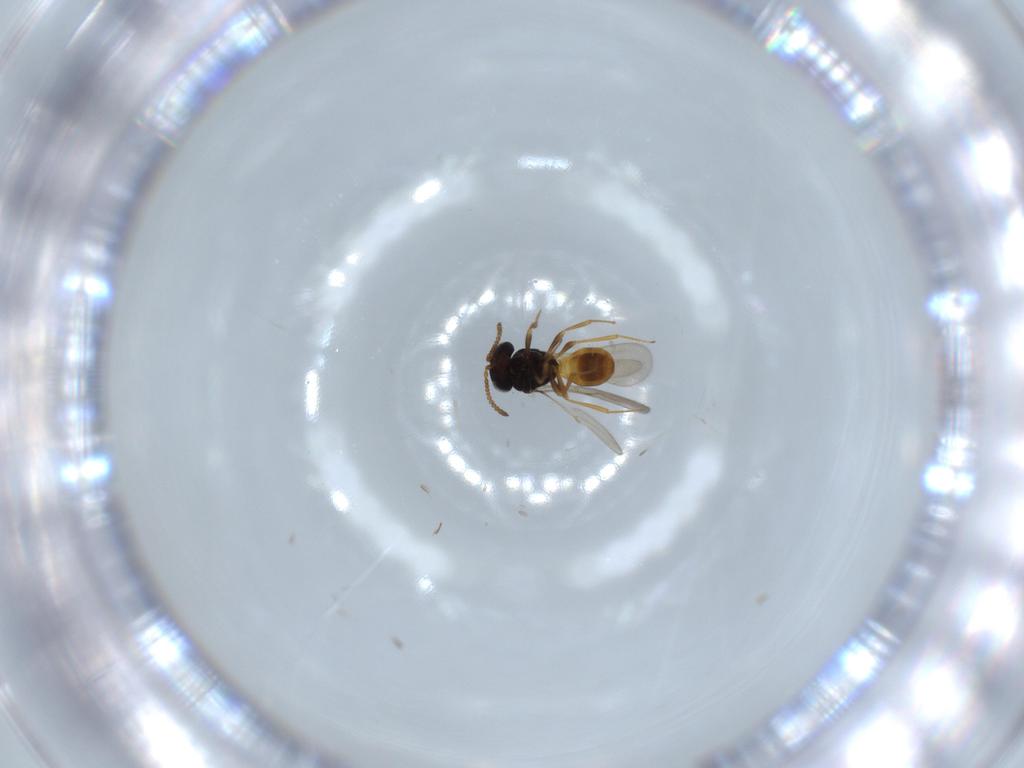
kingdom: Animalia
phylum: Arthropoda
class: Insecta
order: Hymenoptera
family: Scelionidae
